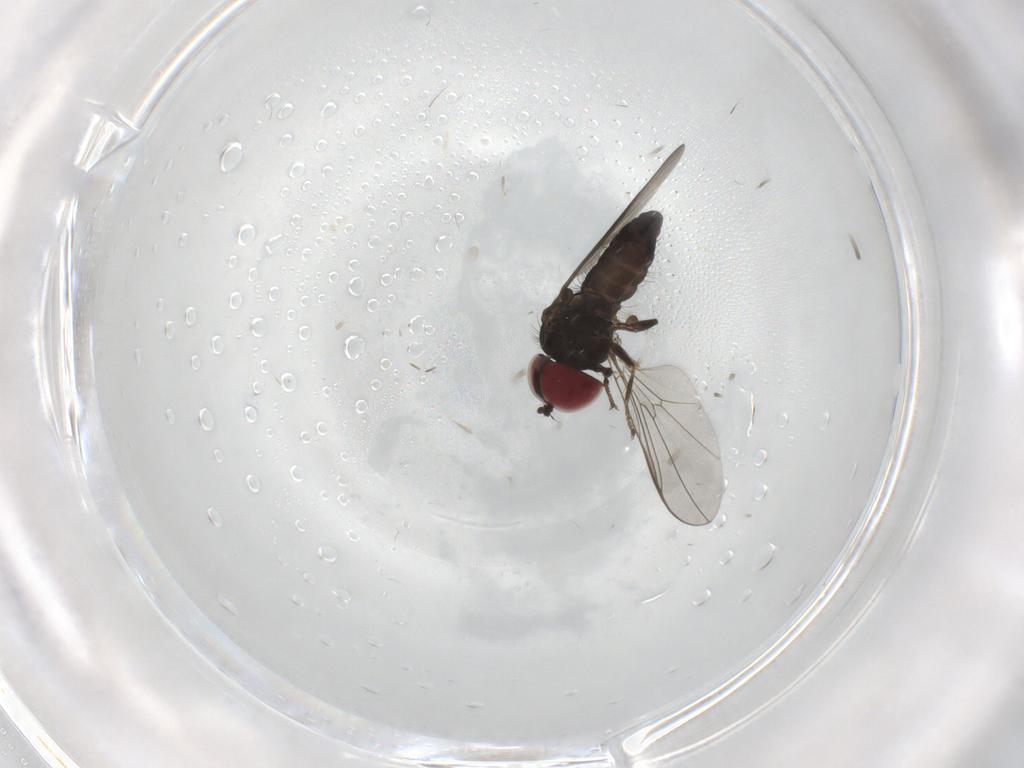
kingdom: Animalia
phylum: Arthropoda
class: Insecta
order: Diptera
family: Pipunculidae
